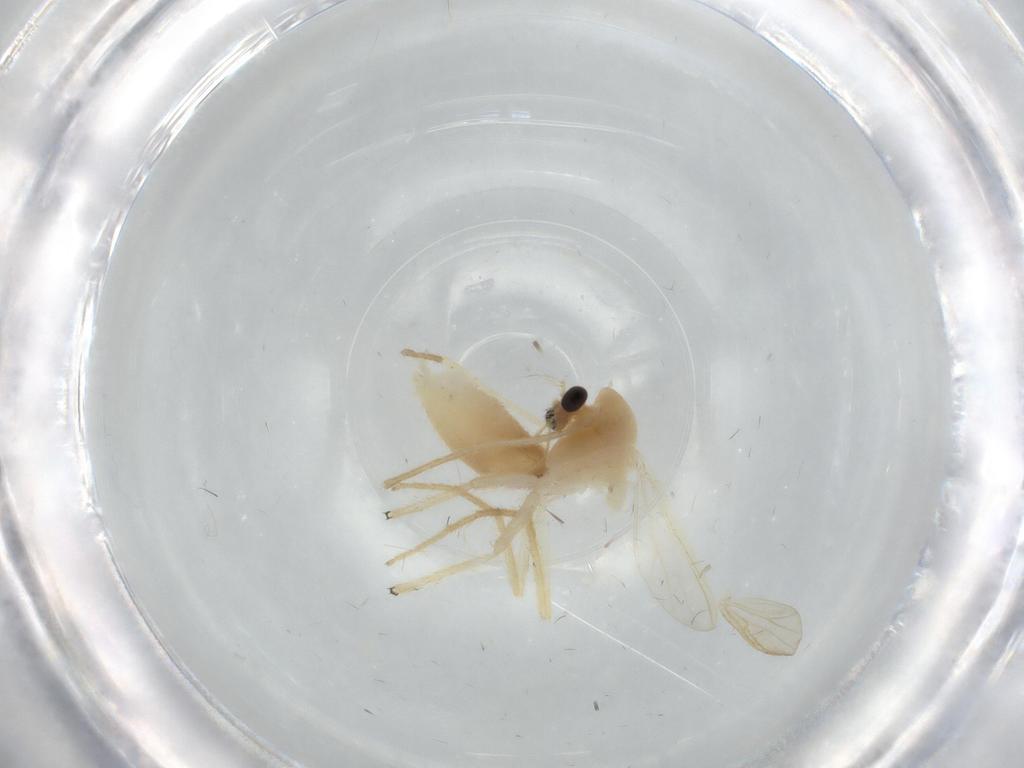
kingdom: Animalia
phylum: Arthropoda
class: Insecta
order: Diptera
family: Chironomidae
